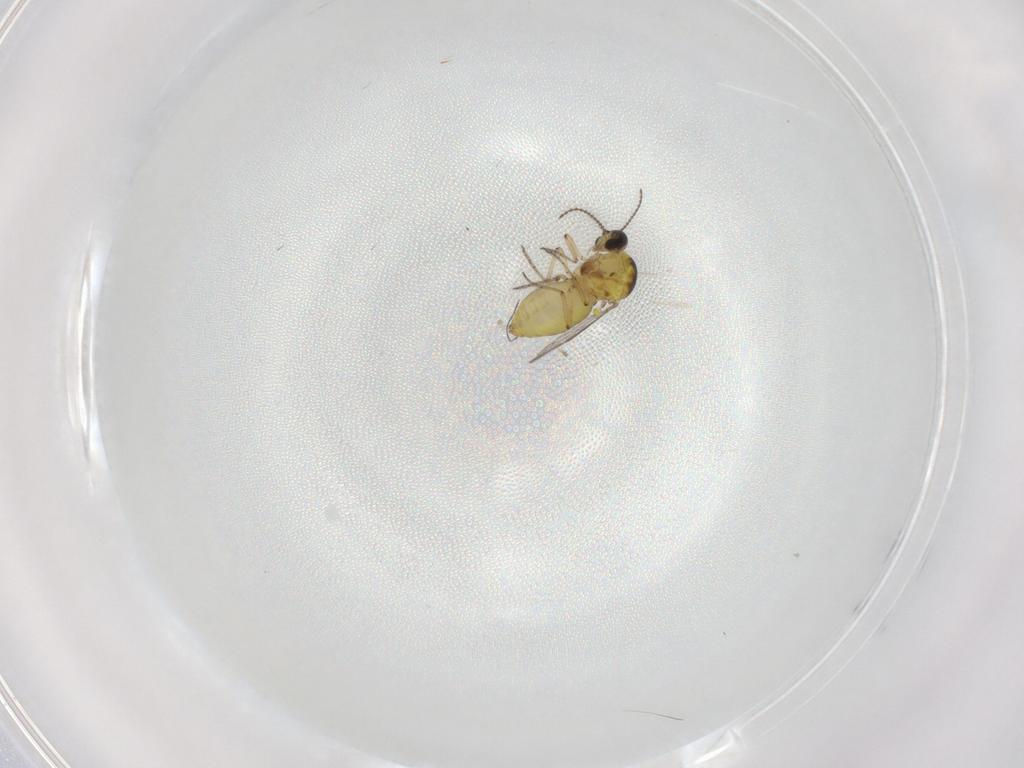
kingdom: Animalia
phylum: Arthropoda
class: Insecta
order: Diptera
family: Ceratopogonidae
